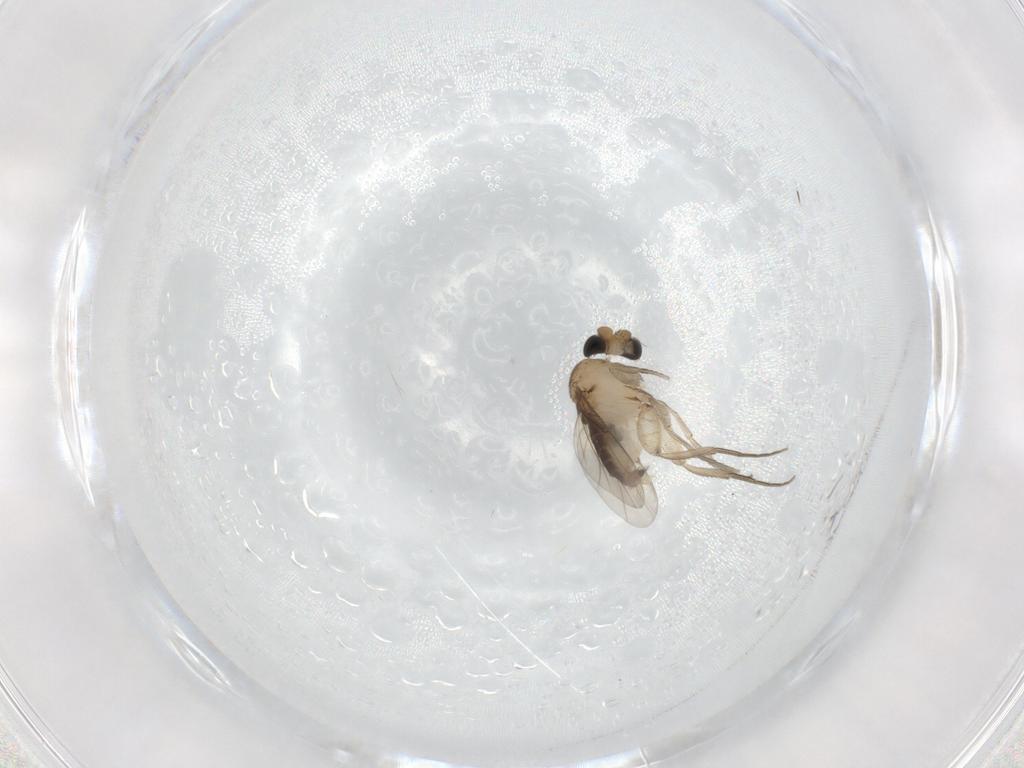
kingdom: Animalia
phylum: Arthropoda
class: Insecta
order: Diptera
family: Phoridae
